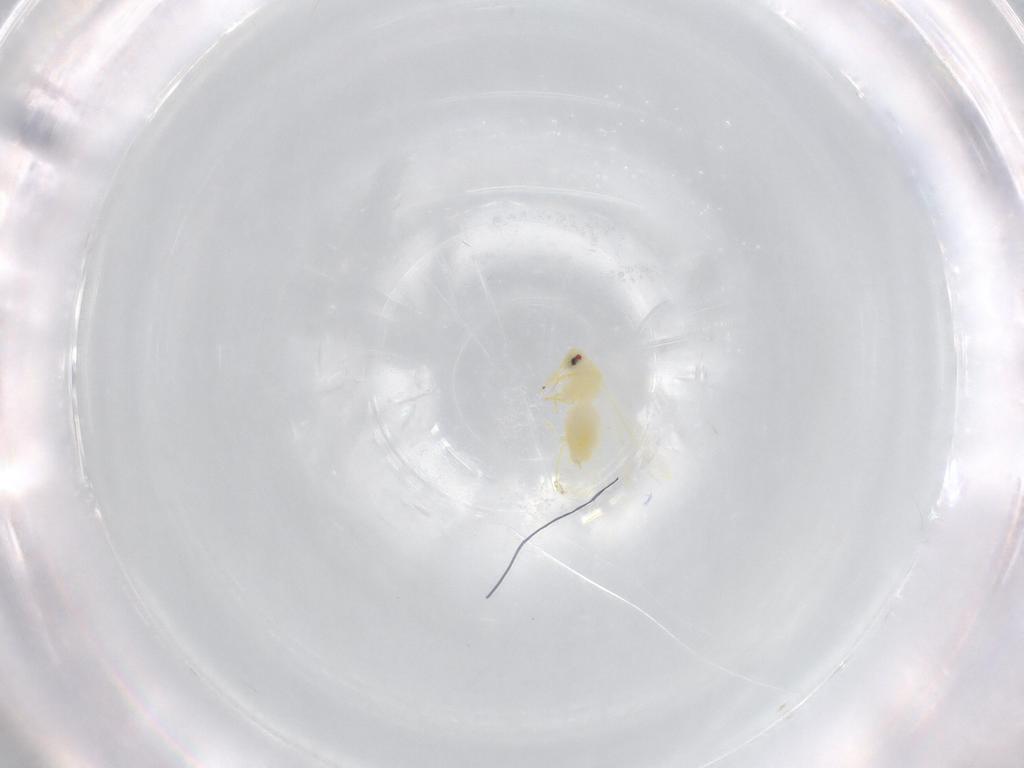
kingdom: Animalia
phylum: Arthropoda
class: Insecta
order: Hemiptera
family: Aleyrodidae
